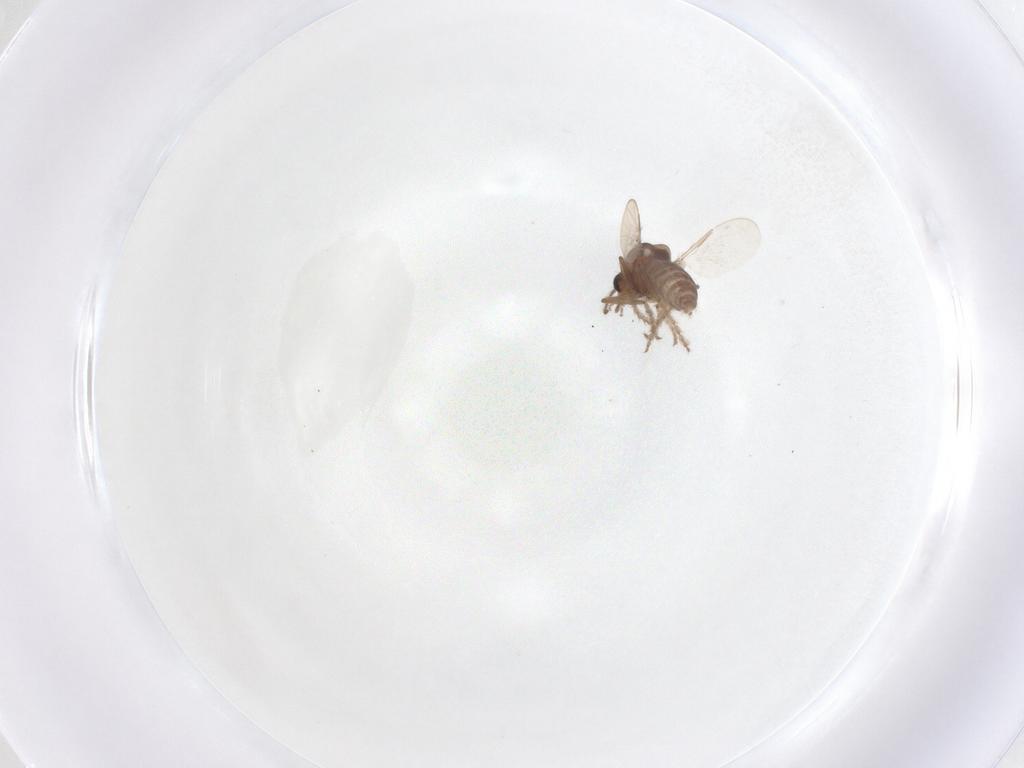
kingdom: Animalia
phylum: Arthropoda
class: Insecta
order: Diptera
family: Ceratopogonidae
